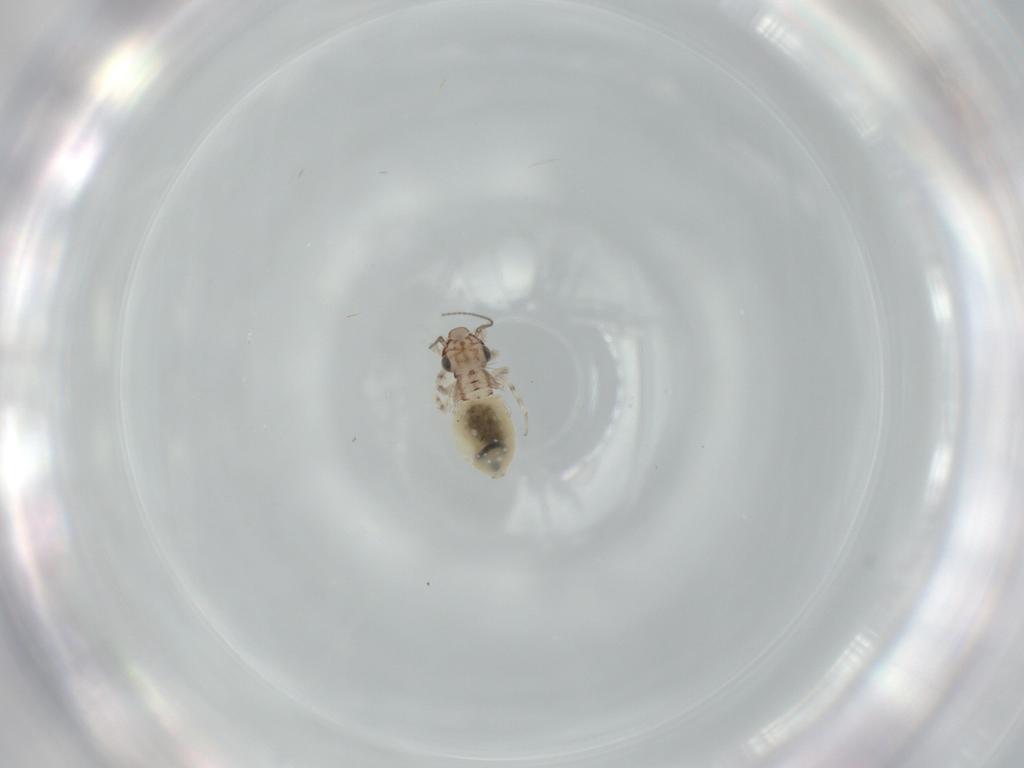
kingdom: Animalia
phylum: Arthropoda
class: Insecta
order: Psocodea
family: Lepidopsocidae
